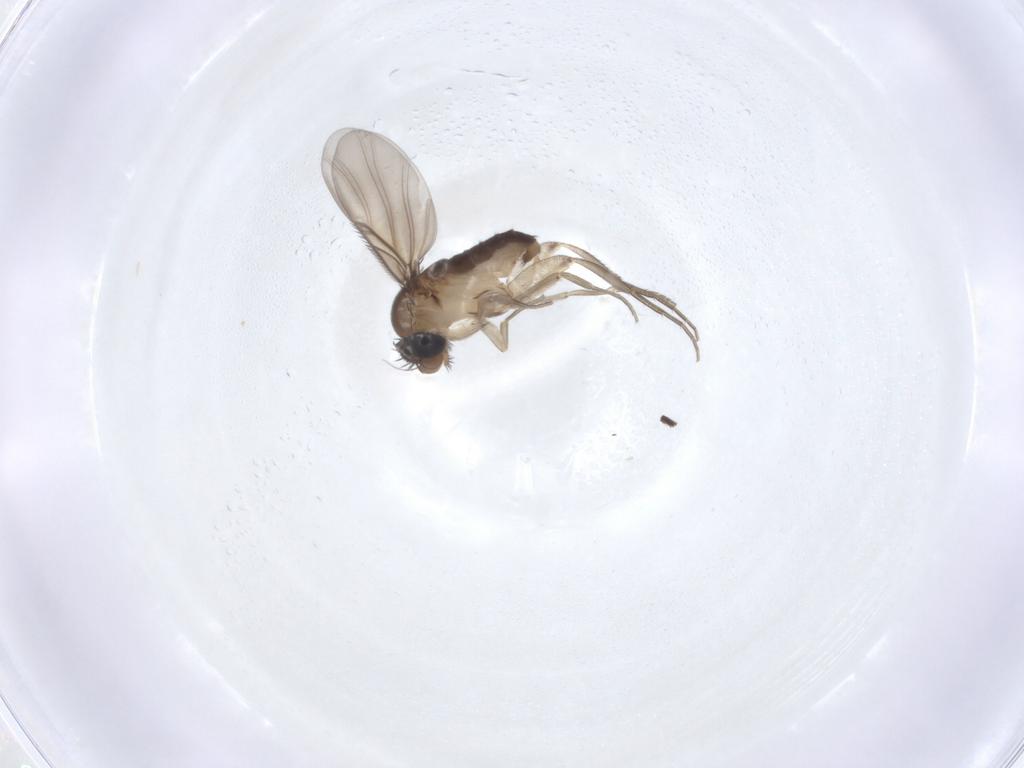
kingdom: Animalia
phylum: Arthropoda
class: Insecta
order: Diptera
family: Phoridae
